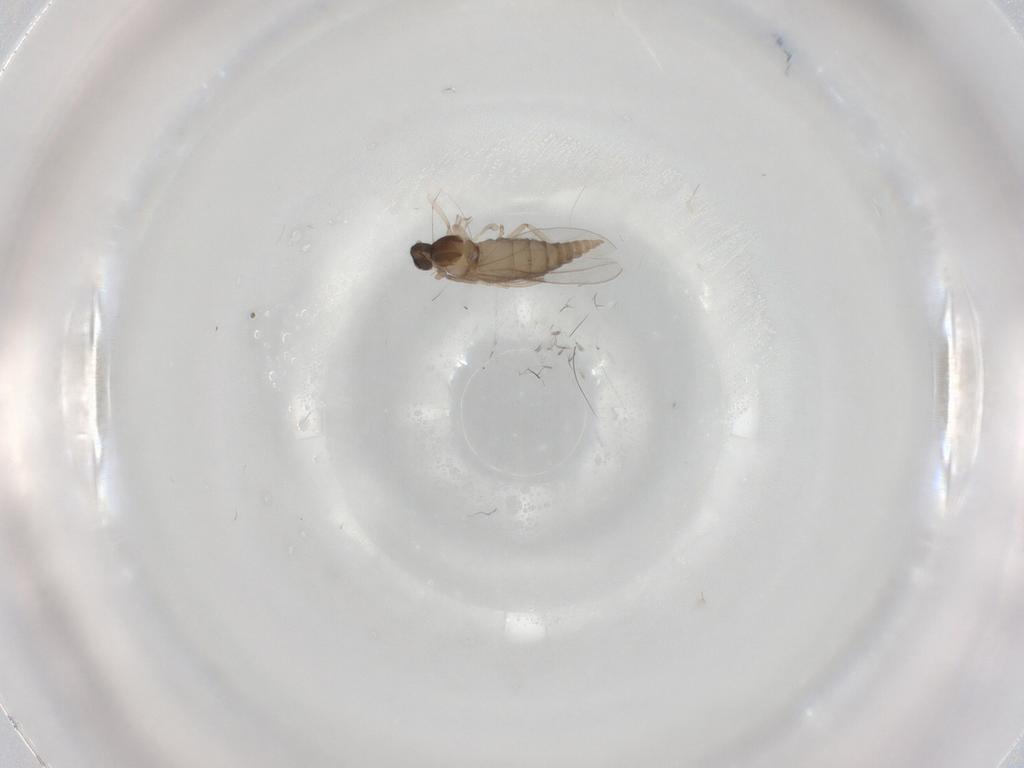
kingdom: Animalia
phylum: Arthropoda
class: Insecta
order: Diptera
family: Cecidomyiidae
